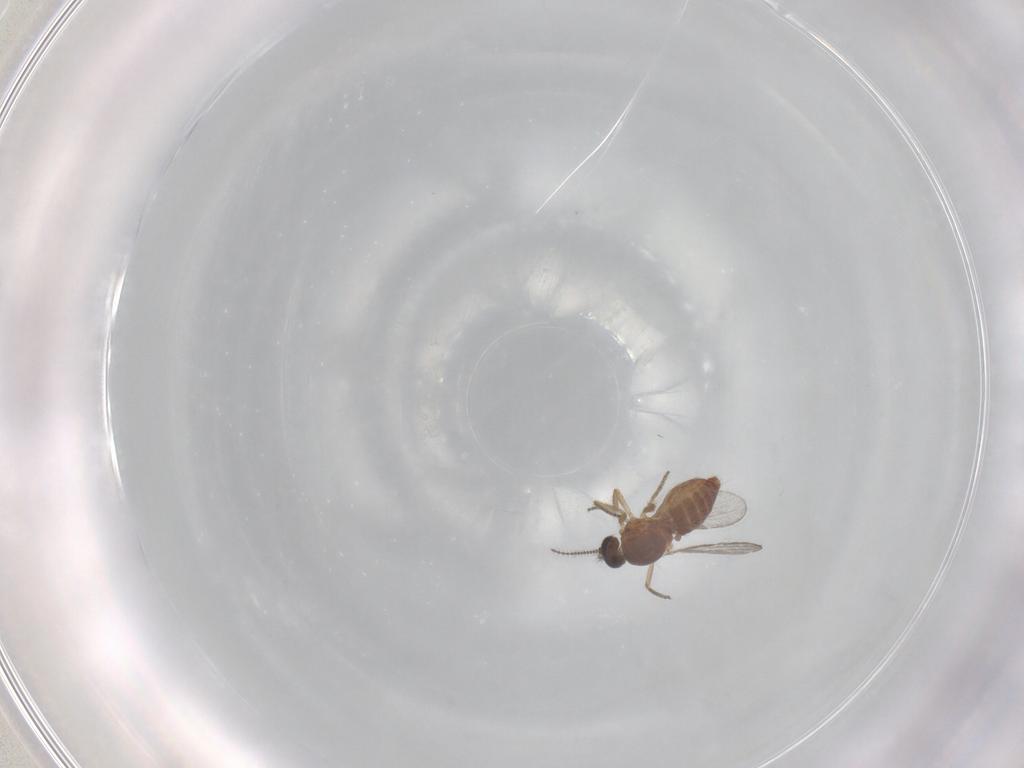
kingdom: Animalia
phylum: Arthropoda
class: Insecta
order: Diptera
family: Ceratopogonidae
